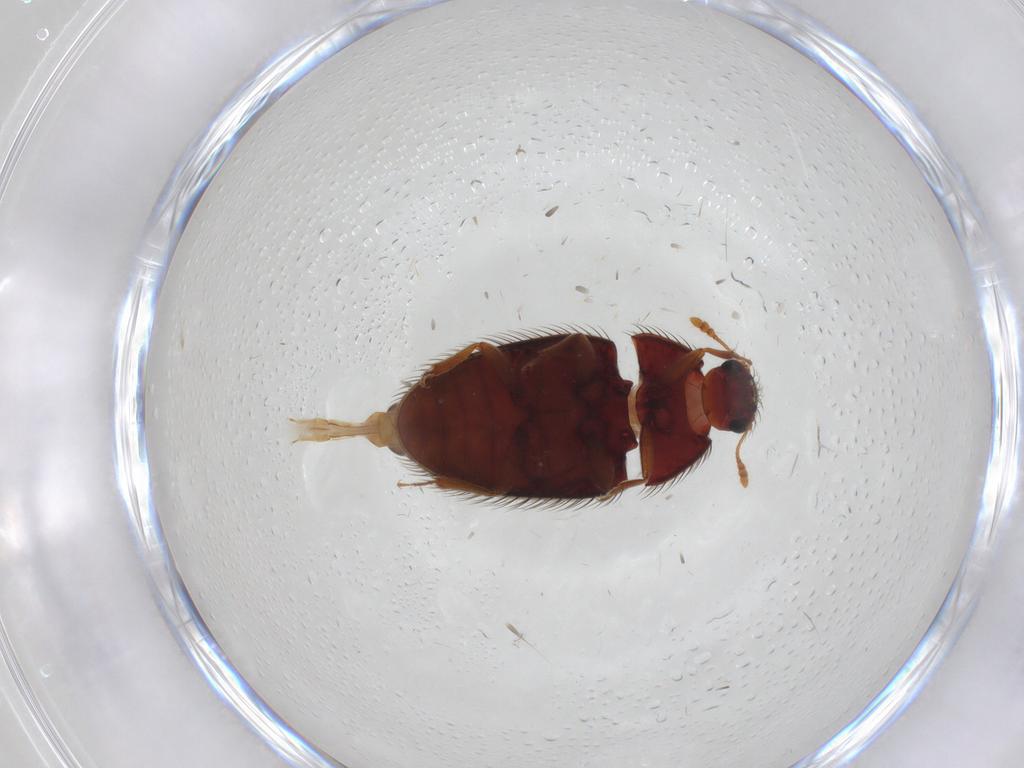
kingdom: Animalia
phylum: Arthropoda
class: Insecta
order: Coleoptera
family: Biphyllidae
